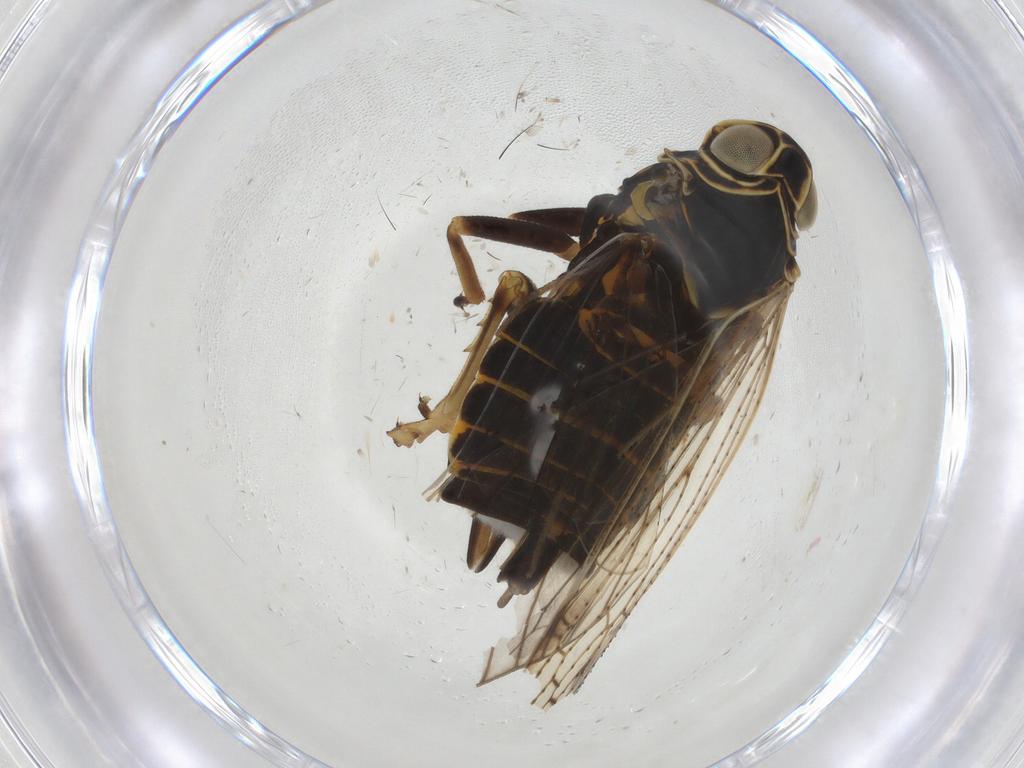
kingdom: Animalia
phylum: Arthropoda
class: Insecta
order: Hemiptera
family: Cixiidae
